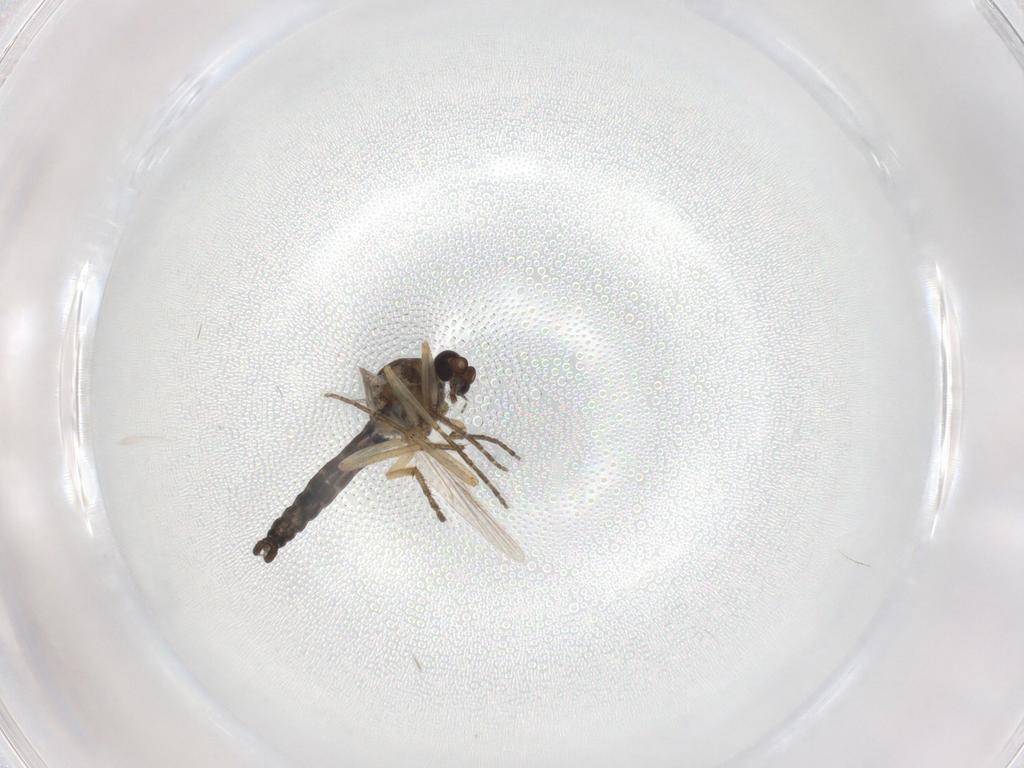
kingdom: Animalia
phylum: Arthropoda
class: Insecta
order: Diptera
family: Ceratopogonidae
